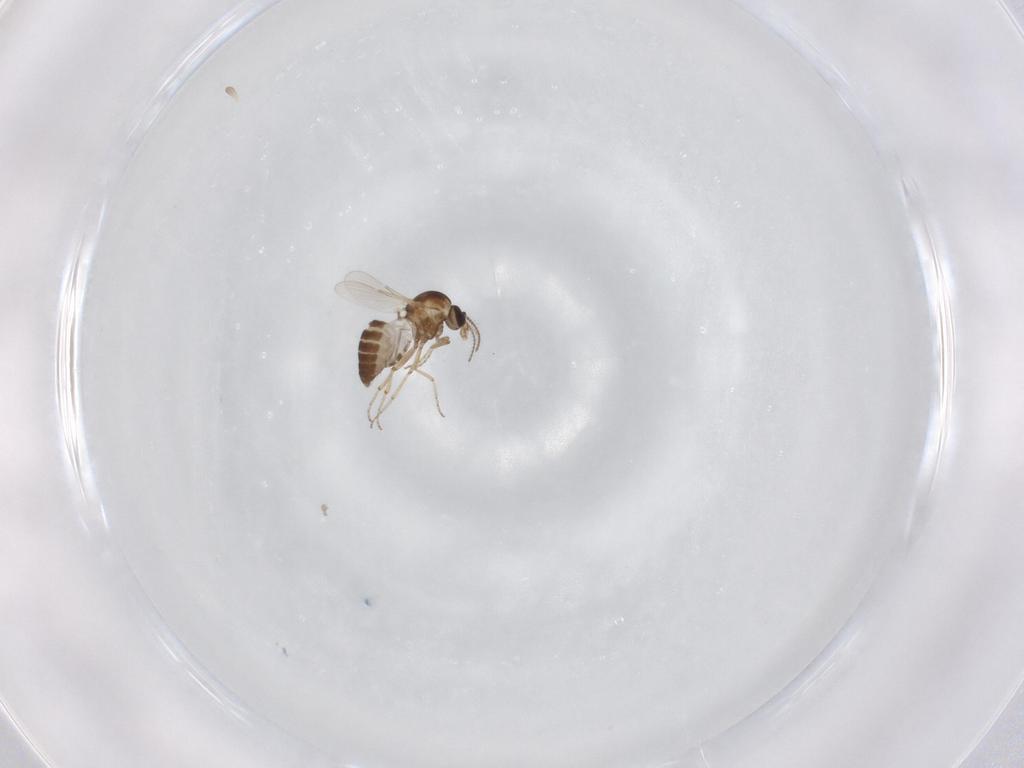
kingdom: Animalia
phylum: Arthropoda
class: Insecta
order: Diptera
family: Ceratopogonidae
